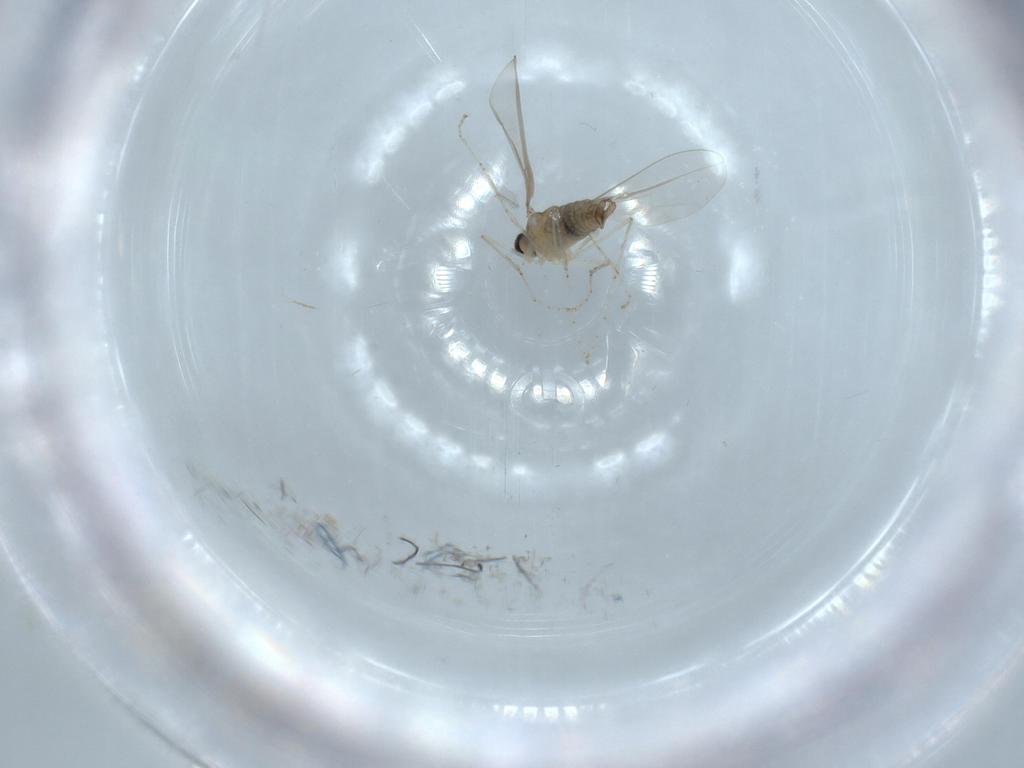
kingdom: Animalia
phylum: Arthropoda
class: Insecta
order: Diptera
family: Cecidomyiidae
